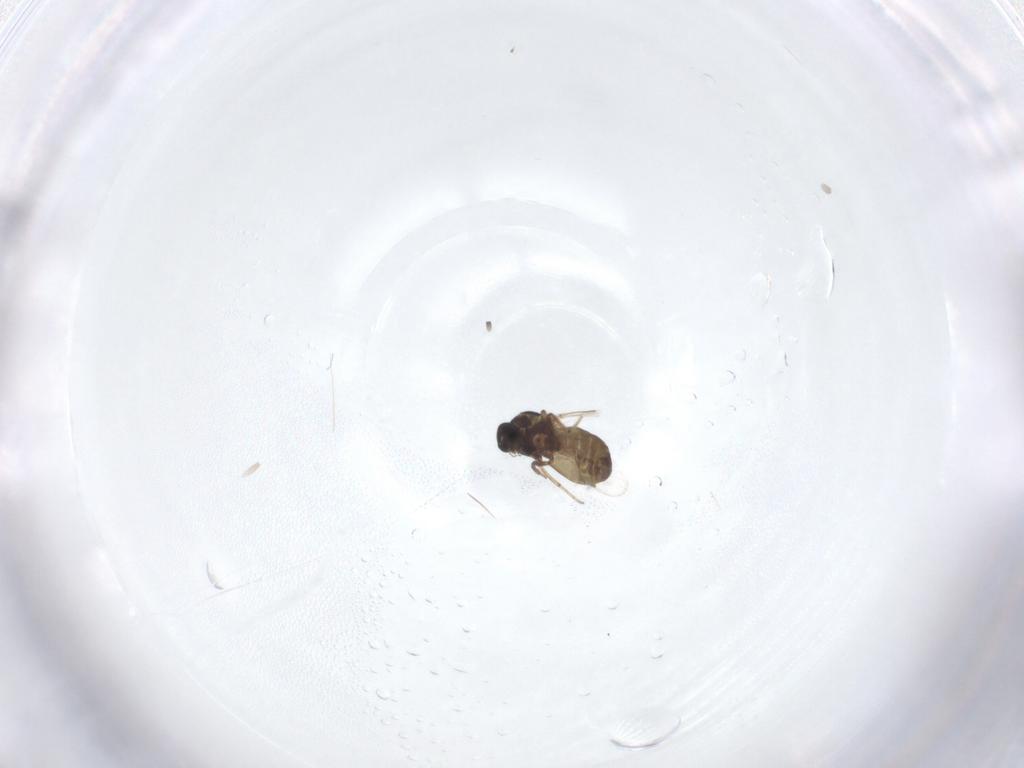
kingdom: Animalia
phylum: Arthropoda
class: Insecta
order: Diptera
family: Ceratopogonidae
